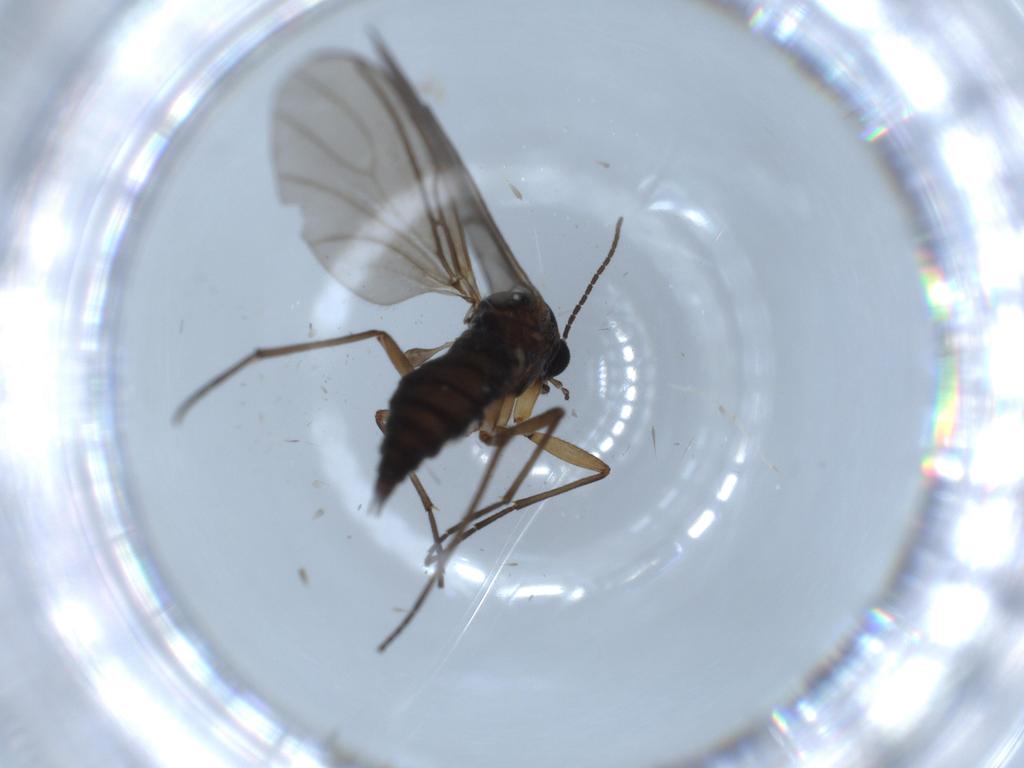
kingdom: Animalia
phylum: Arthropoda
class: Insecta
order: Diptera
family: Sciaridae
